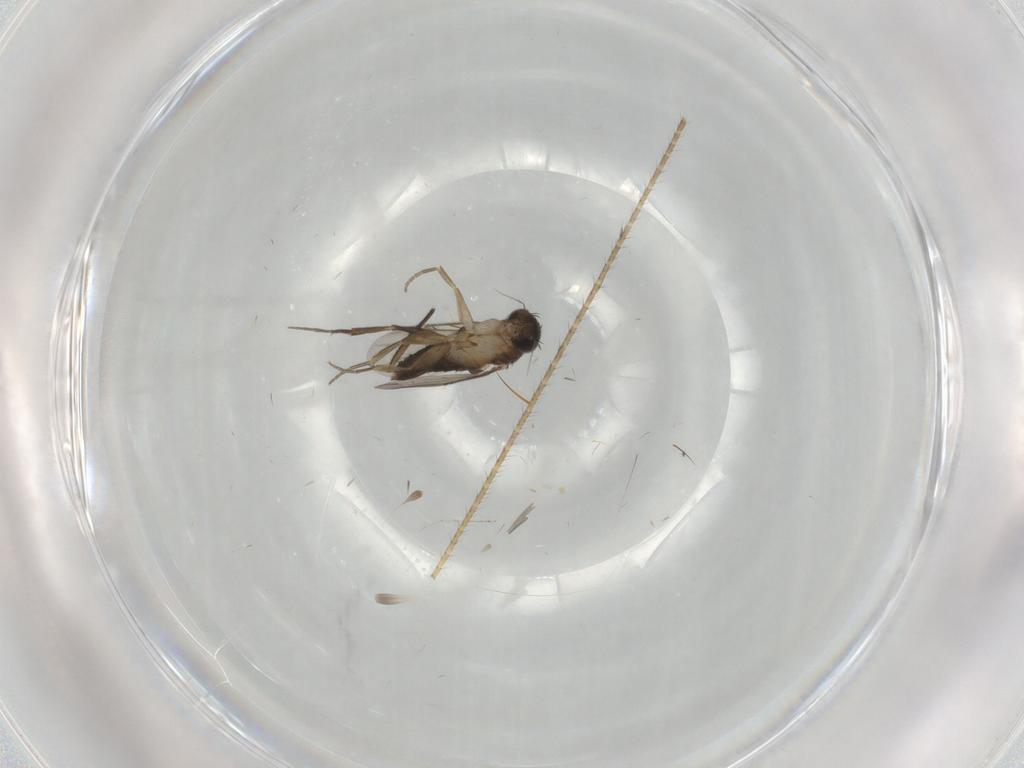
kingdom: Animalia
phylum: Arthropoda
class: Insecta
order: Diptera
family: Phoridae
